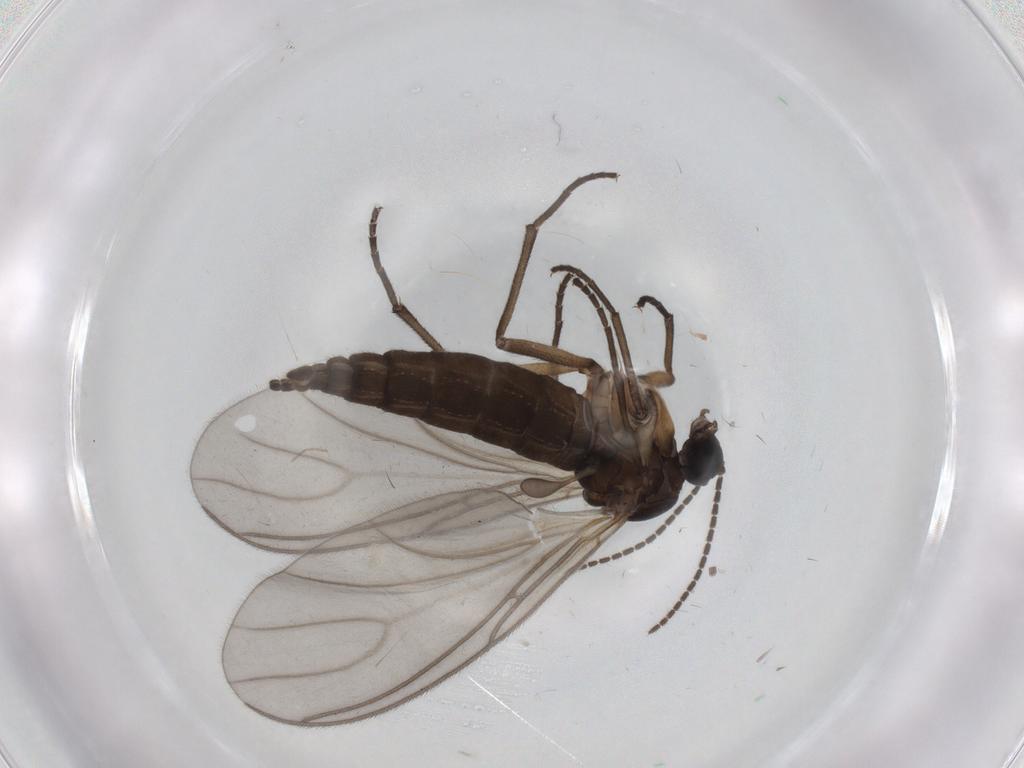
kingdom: Animalia
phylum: Arthropoda
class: Insecta
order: Diptera
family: Sciaridae
